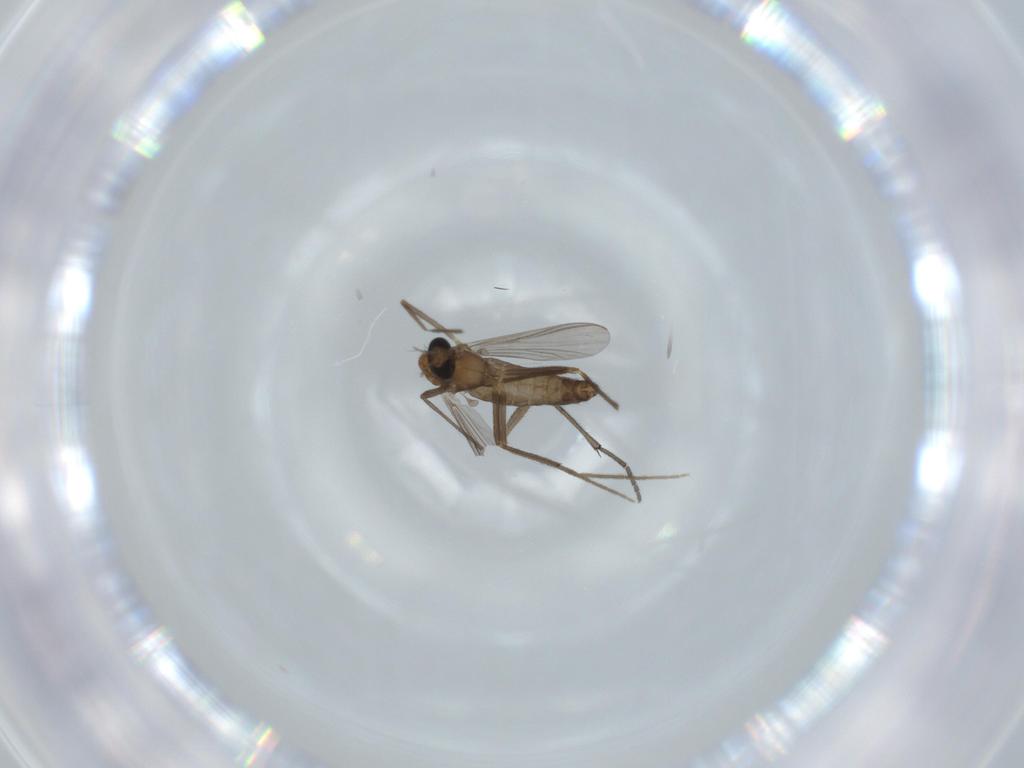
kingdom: Animalia
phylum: Arthropoda
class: Insecta
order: Diptera
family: Chironomidae
